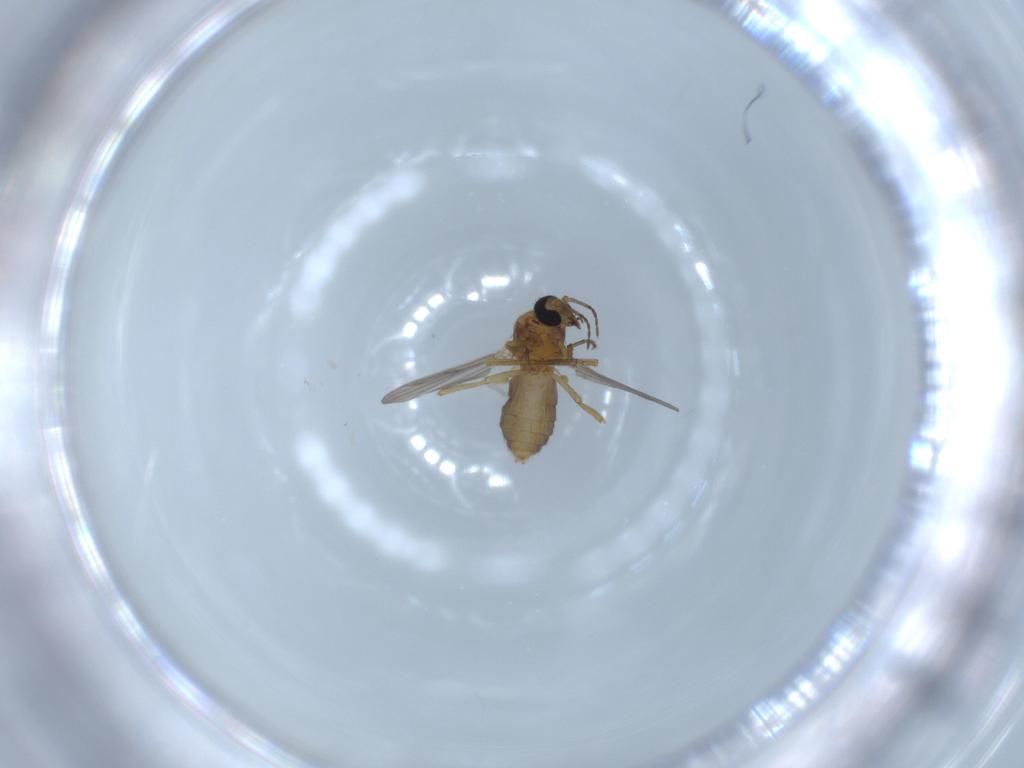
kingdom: Animalia
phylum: Arthropoda
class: Insecta
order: Diptera
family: Ceratopogonidae
